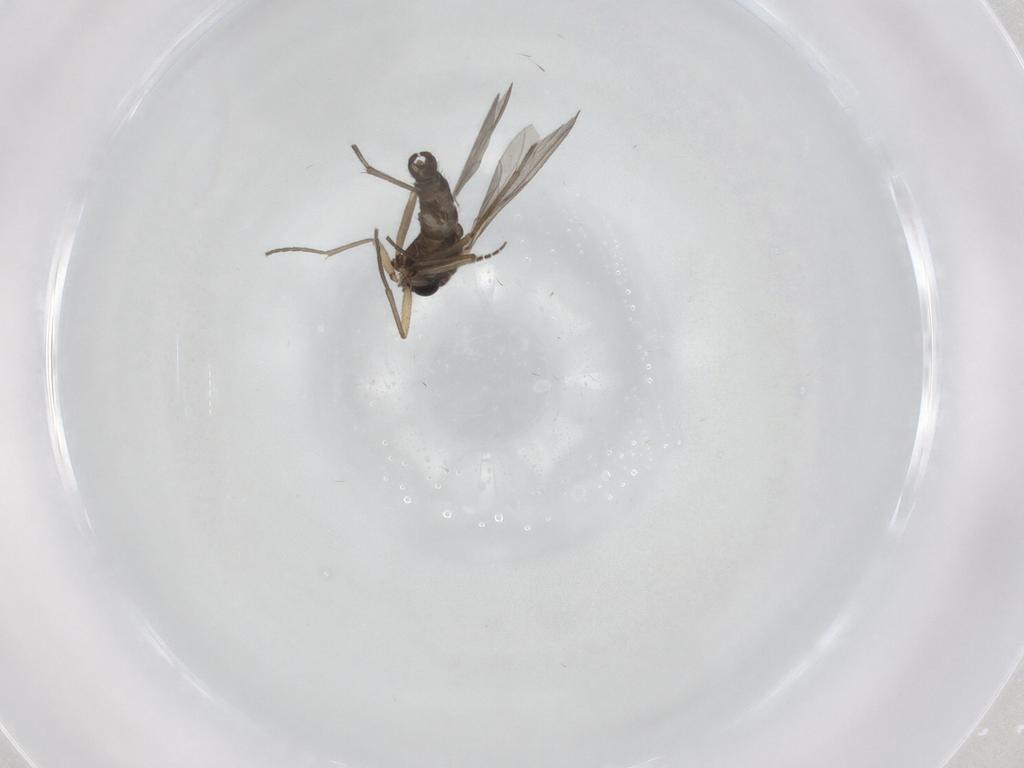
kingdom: Animalia
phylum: Arthropoda
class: Insecta
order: Diptera
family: Sciaridae
